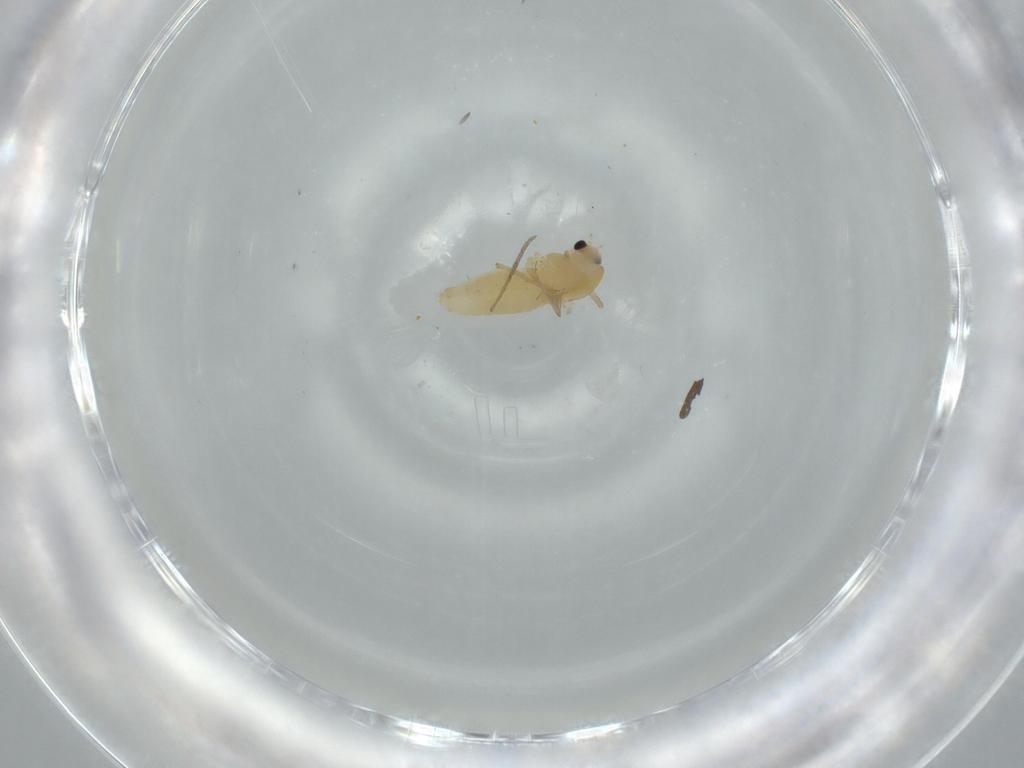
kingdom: Animalia
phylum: Arthropoda
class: Insecta
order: Diptera
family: Chironomidae
